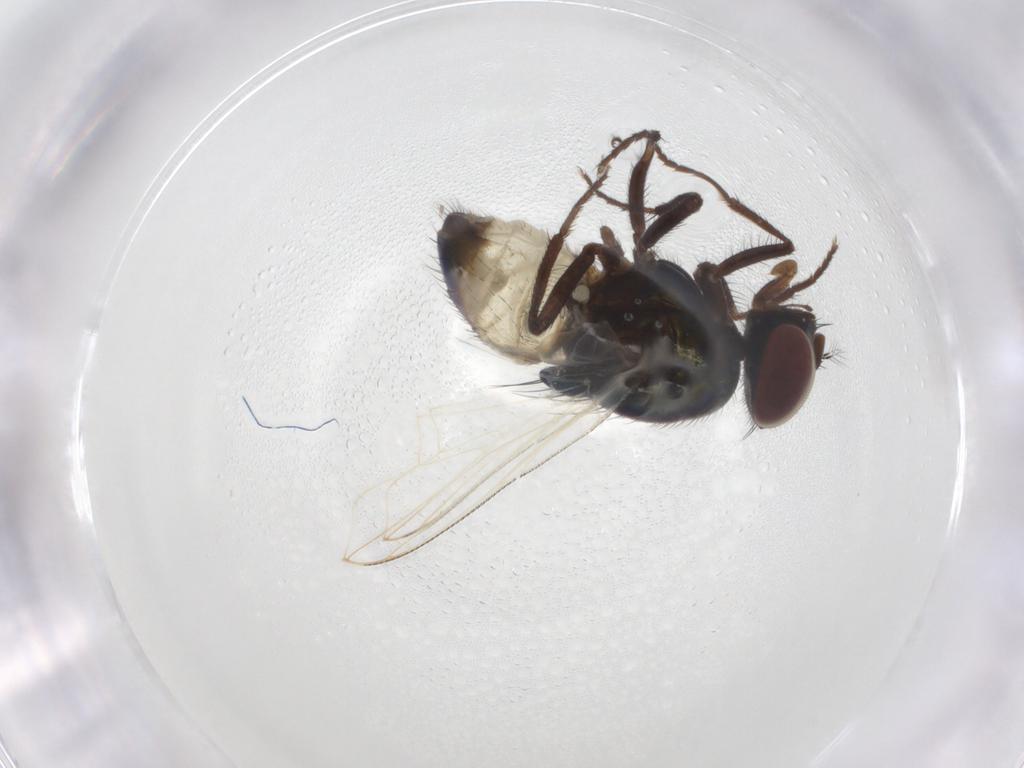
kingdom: Animalia
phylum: Arthropoda
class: Insecta
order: Diptera
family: Muscidae
